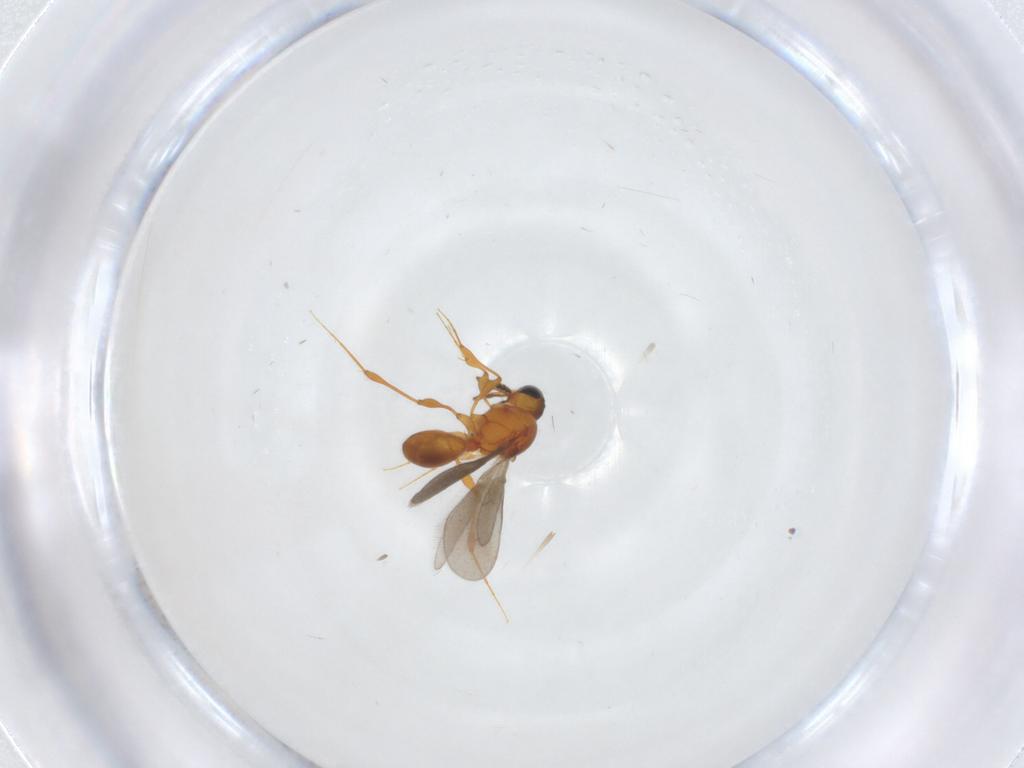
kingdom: Animalia
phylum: Arthropoda
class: Insecta
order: Hymenoptera
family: Platygastridae
